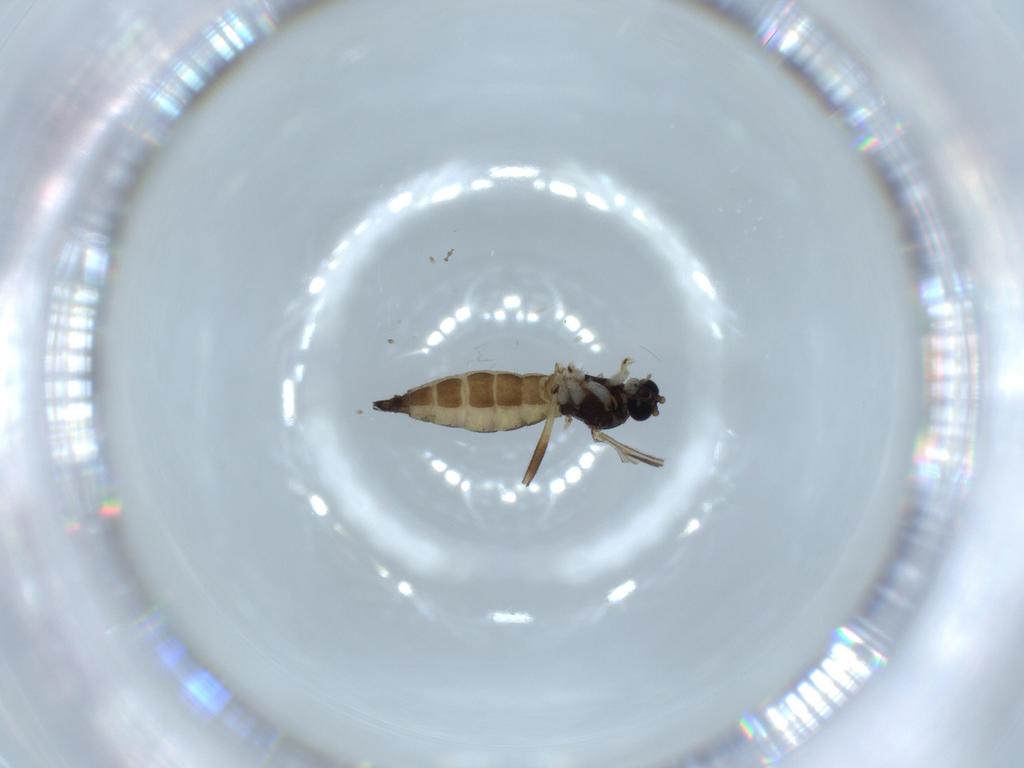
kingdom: Animalia
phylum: Arthropoda
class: Insecta
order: Diptera
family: Sciaridae
